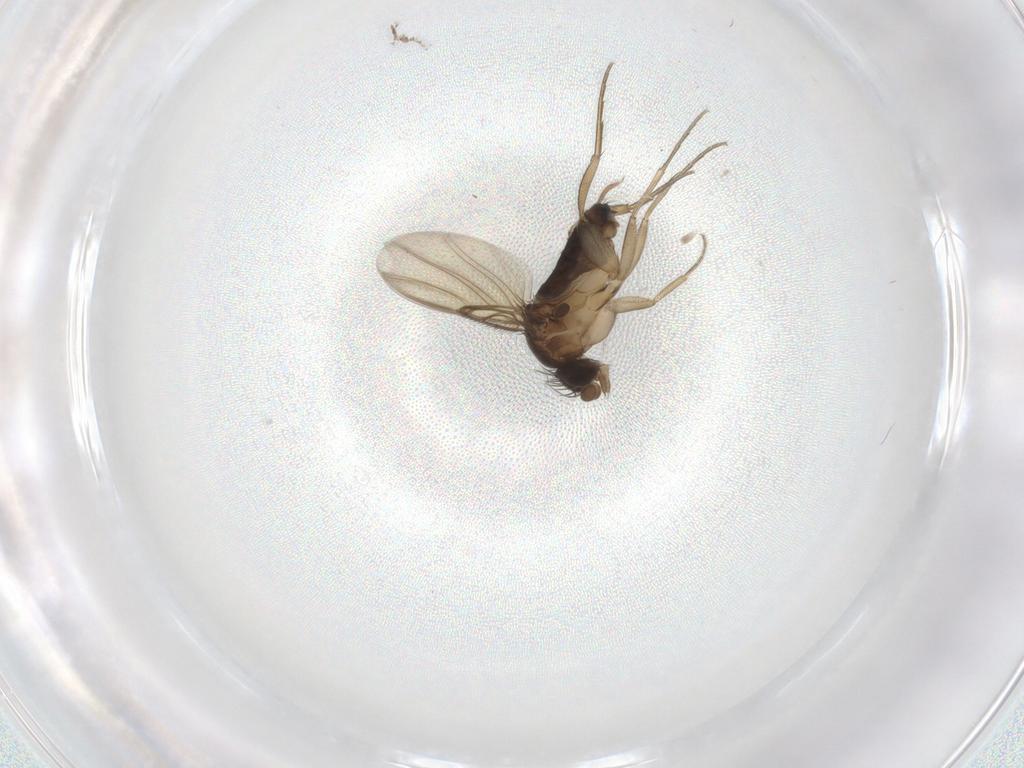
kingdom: Animalia
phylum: Arthropoda
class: Insecta
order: Diptera
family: Phoridae
